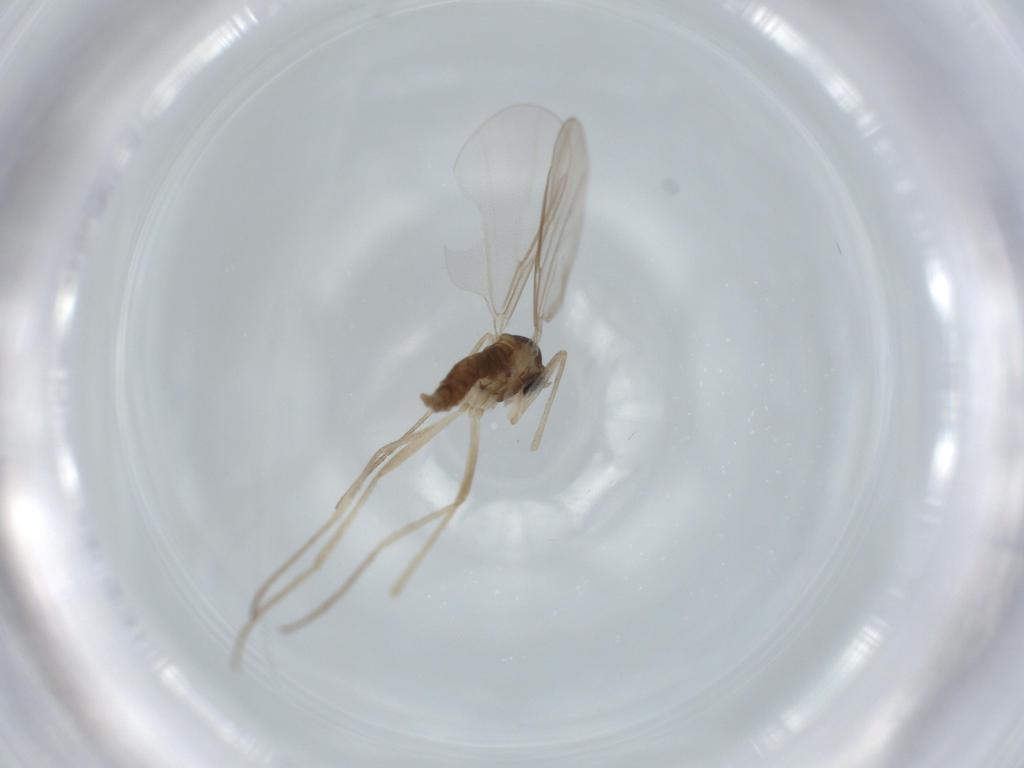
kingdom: Animalia
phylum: Arthropoda
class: Insecta
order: Diptera
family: Cecidomyiidae
